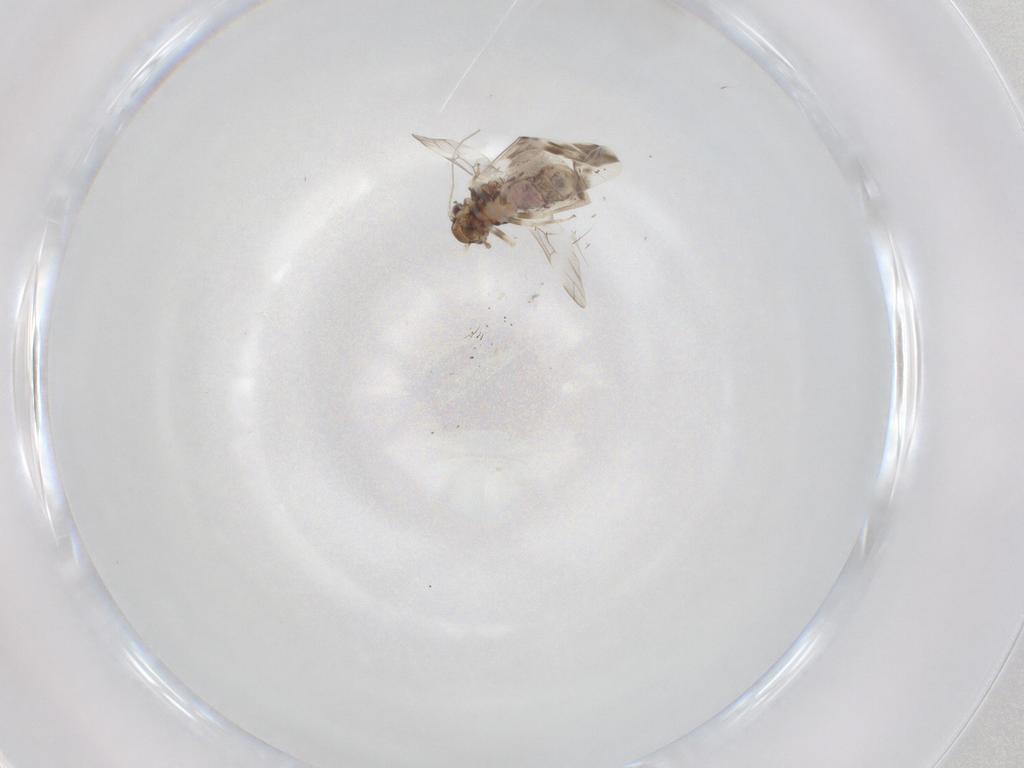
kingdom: Animalia
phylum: Arthropoda
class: Insecta
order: Psocodea
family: Ectopsocidae
